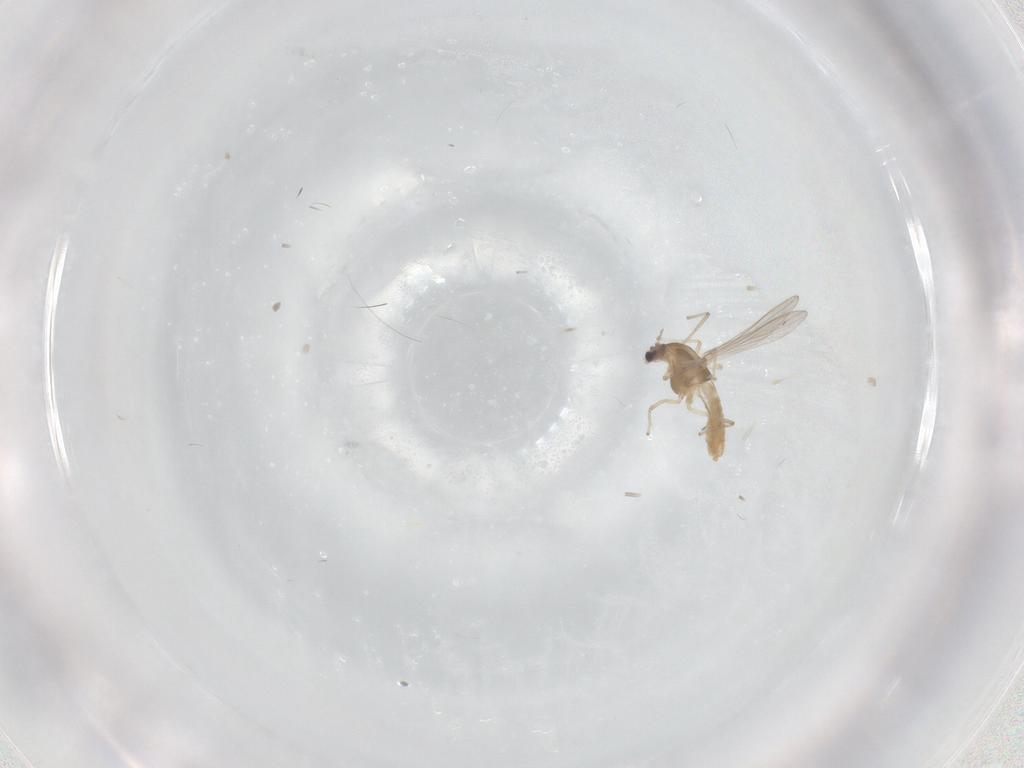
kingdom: Animalia
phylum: Arthropoda
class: Insecta
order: Diptera
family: Chironomidae
